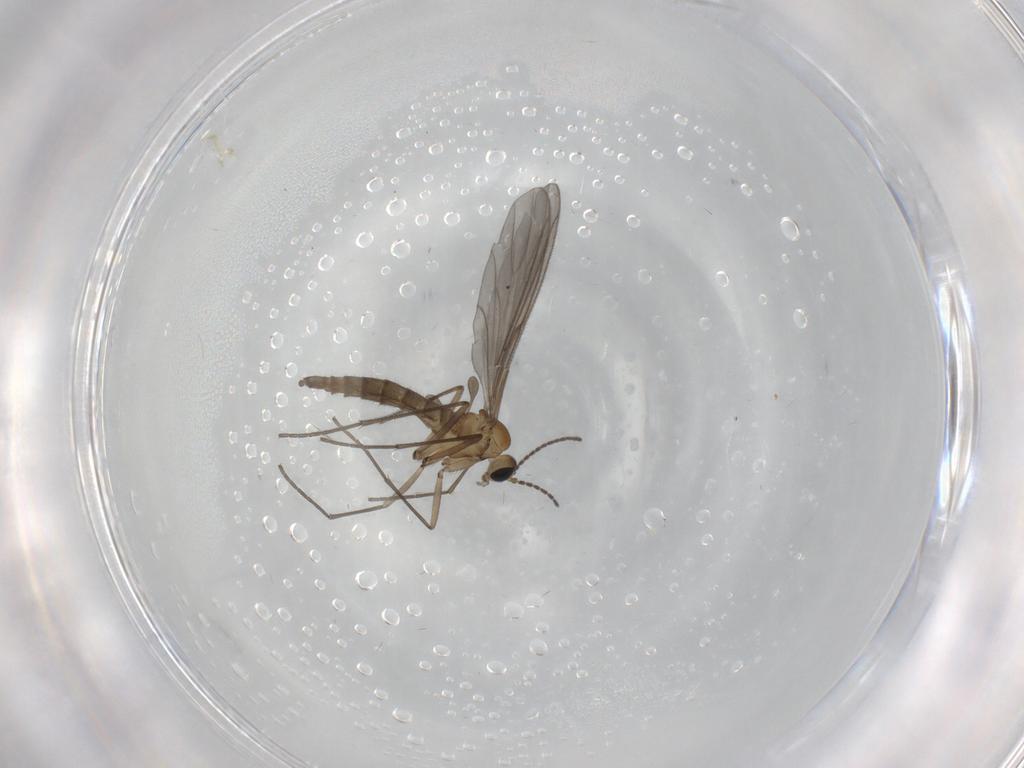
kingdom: Animalia
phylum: Arthropoda
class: Insecta
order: Diptera
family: Sciaridae
